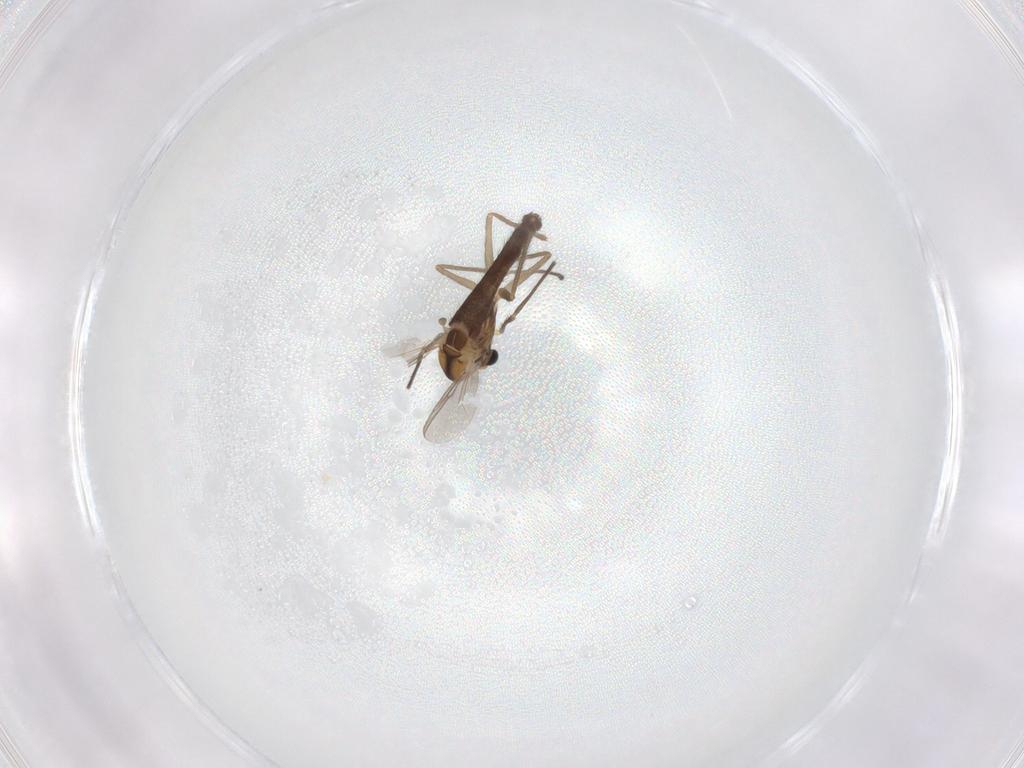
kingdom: Animalia
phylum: Arthropoda
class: Insecta
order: Diptera
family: Chironomidae
